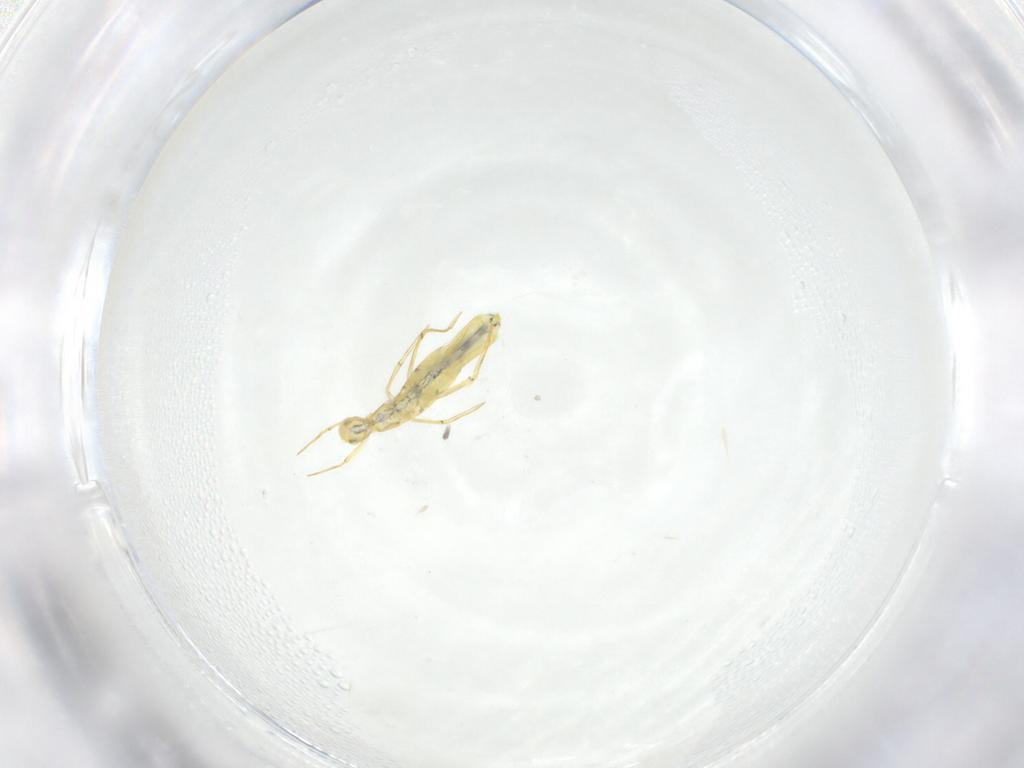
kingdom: Animalia
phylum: Arthropoda
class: Collembola
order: Entomobryomorpha
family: Entomobryidae
